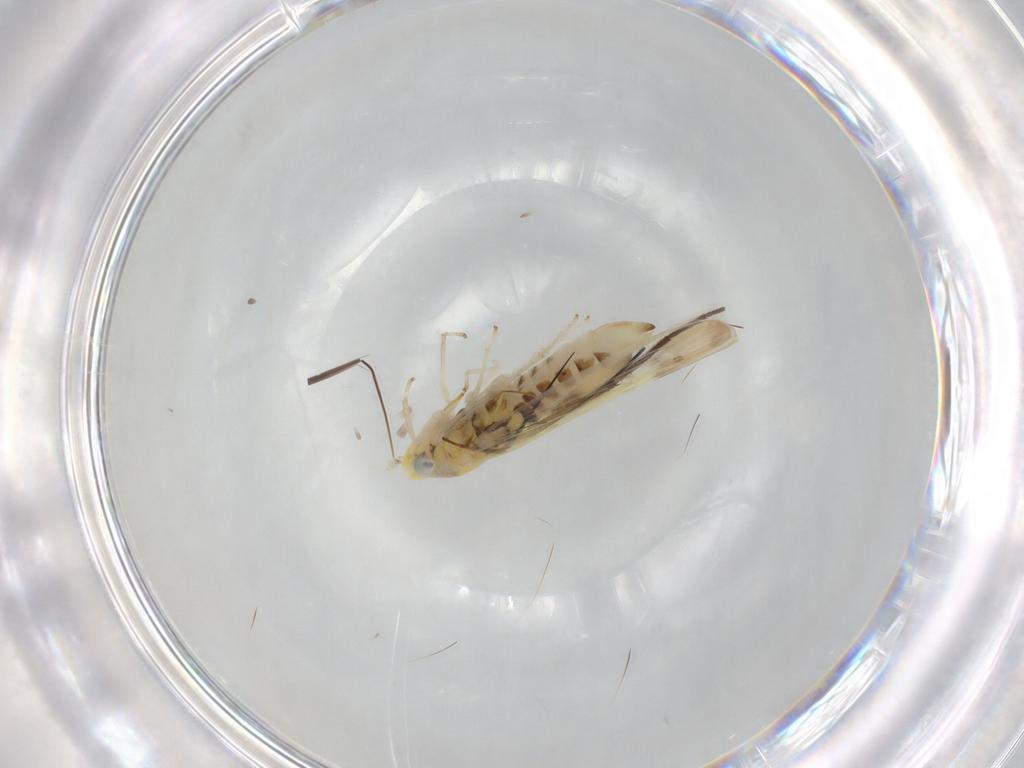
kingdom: Animalia
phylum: Arthropoda
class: Insecta
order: Hemiptera
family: Cicadellidae
